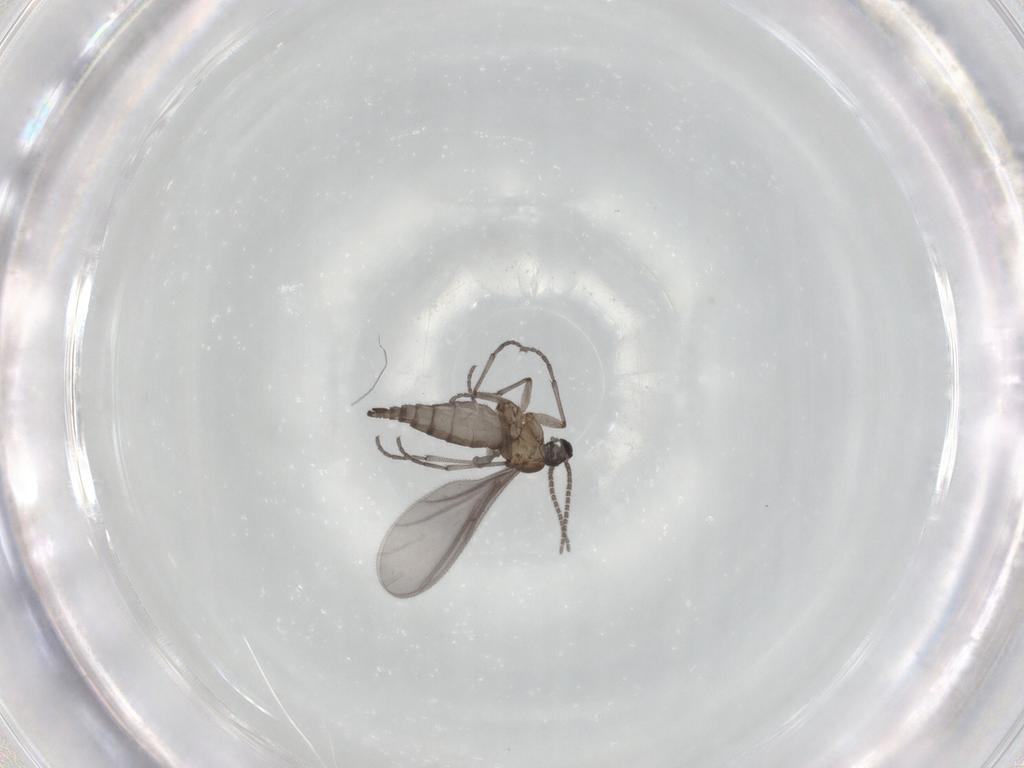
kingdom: Animalia
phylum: Arthropoda
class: Insecta
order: Diptera
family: Sciaridae
